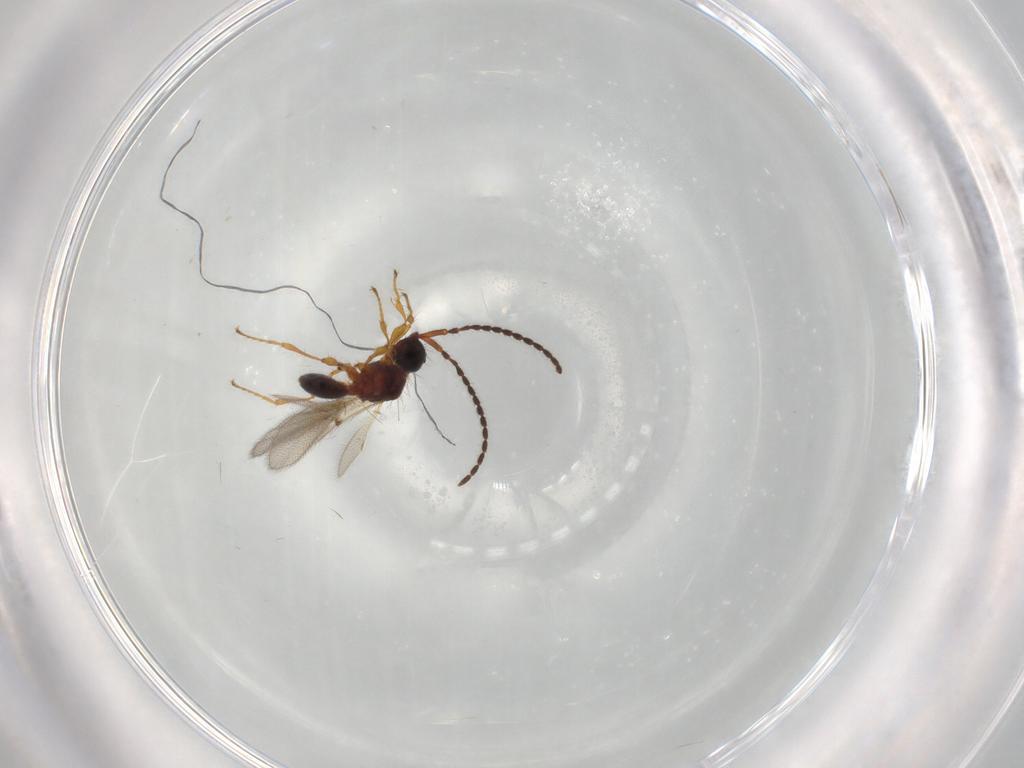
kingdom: Animalia
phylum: Arthropoda
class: Insecta
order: Hymenoptera
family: Diapriidae
